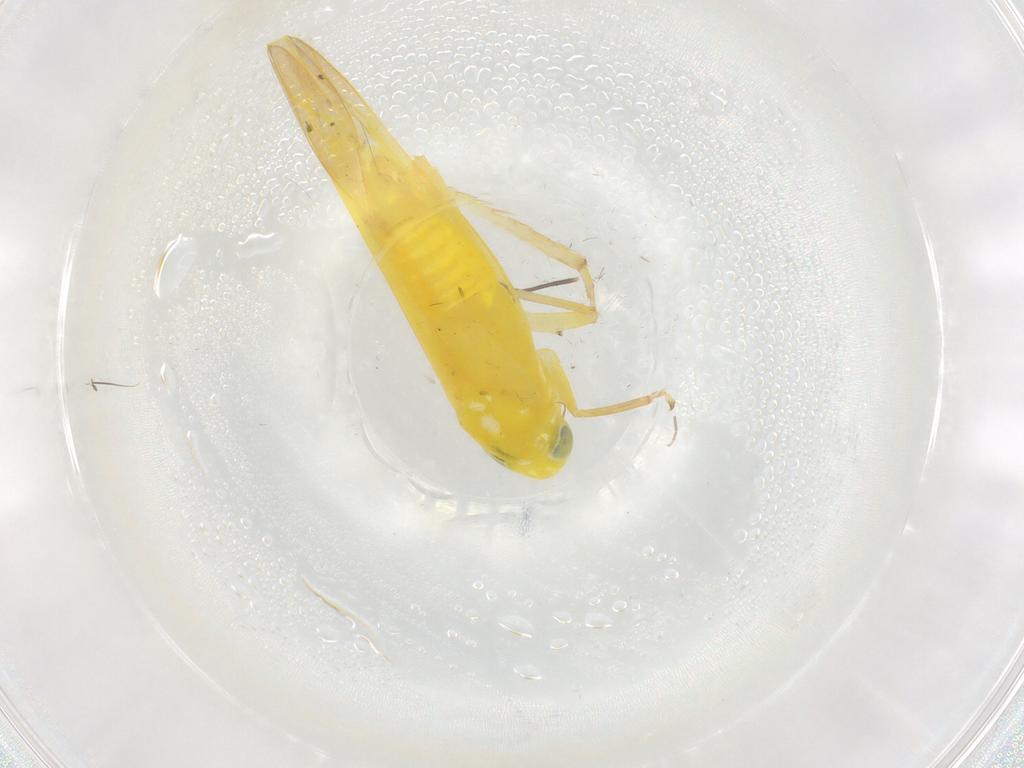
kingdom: Animalia
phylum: Arthropoda
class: Insecta
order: Hemiptera
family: Cicadellidae
